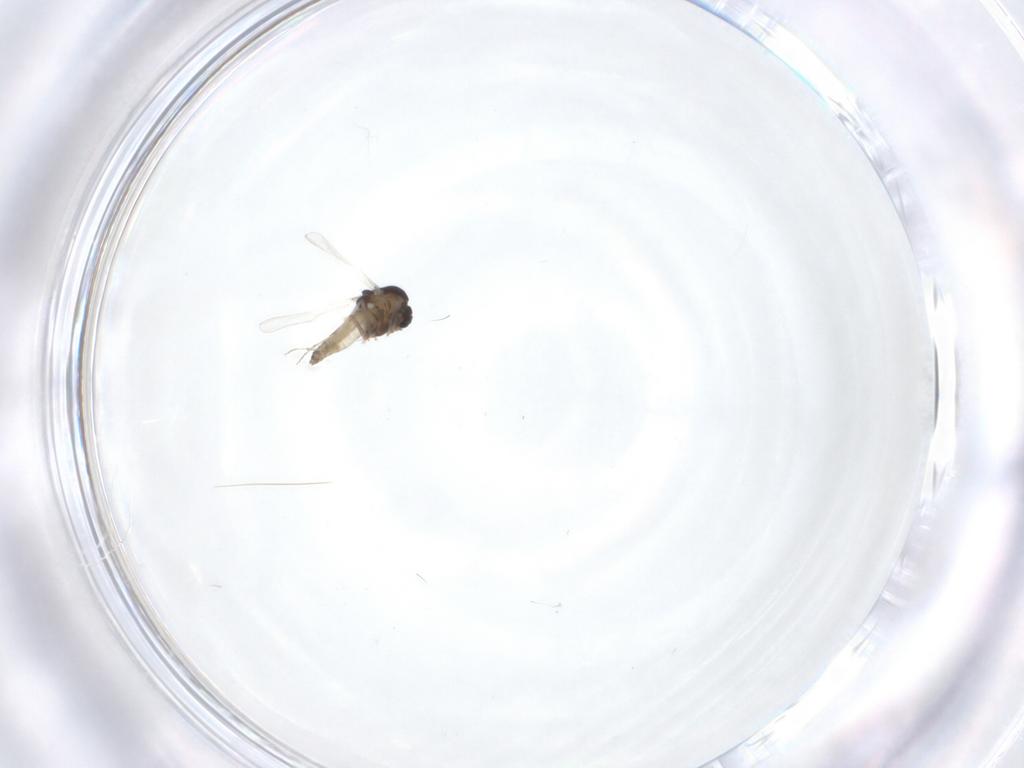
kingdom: Animalia
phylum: Arthropoda
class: Insecta
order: Diptera
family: Chironomidae
